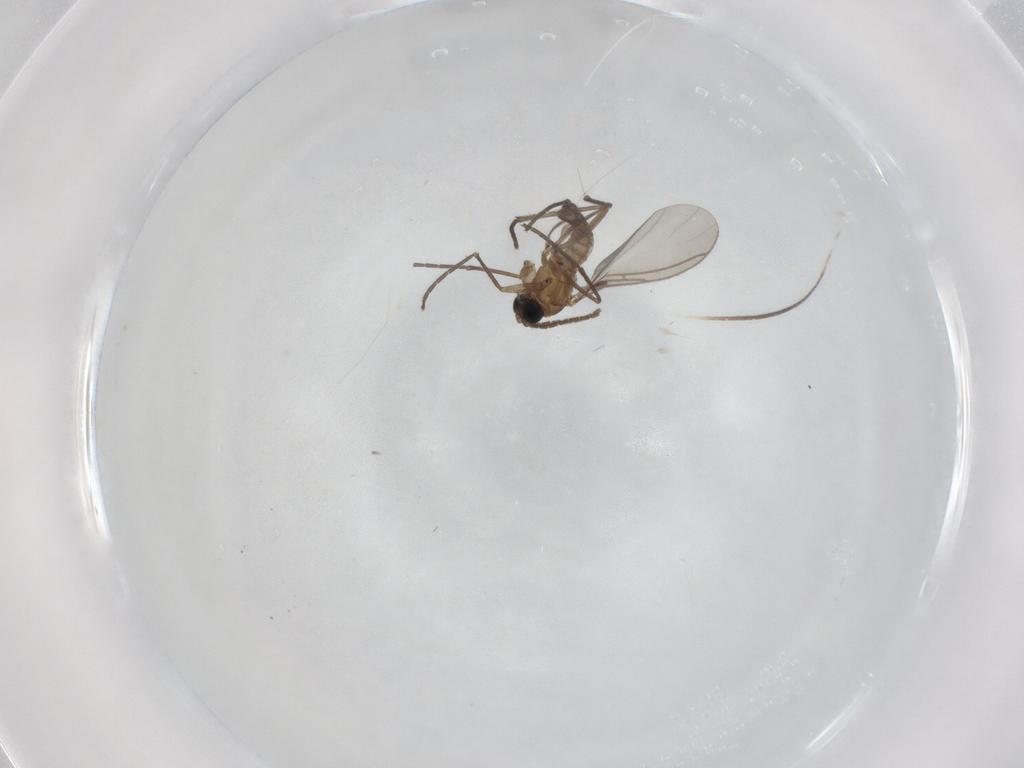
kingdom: Animalia
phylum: Arthropoda
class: Insecta
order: Diptera
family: Sciaridae
